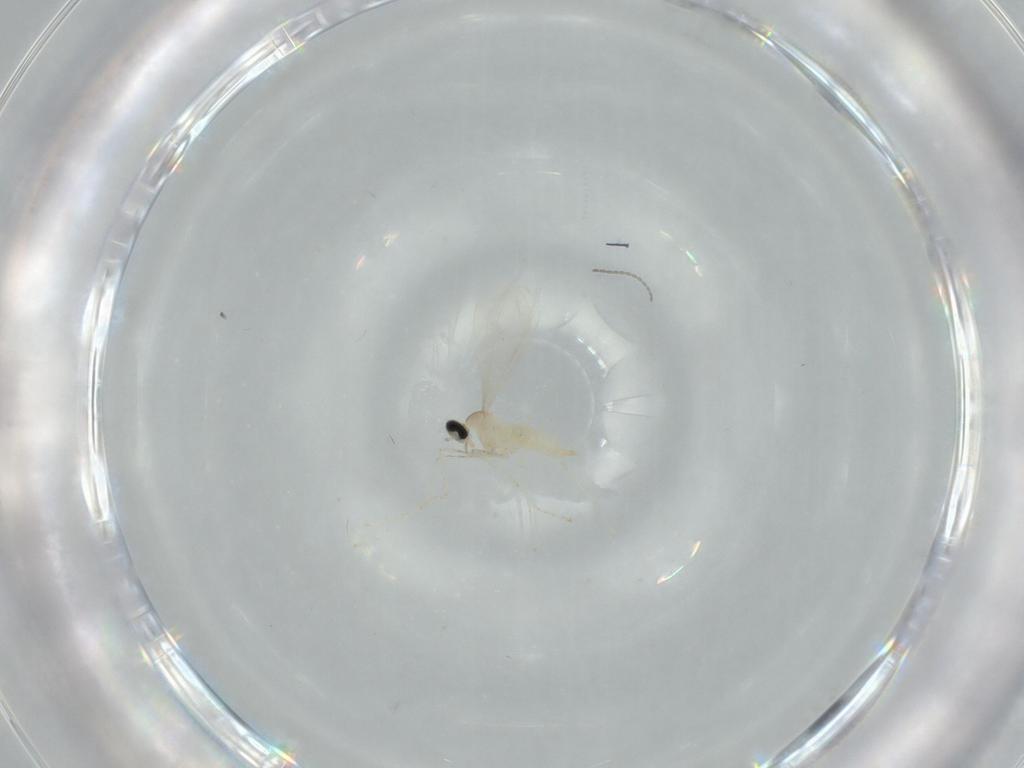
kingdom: Animalia
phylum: Arthropoda
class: Insecta
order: Diptera
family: Cecidomyiidae
